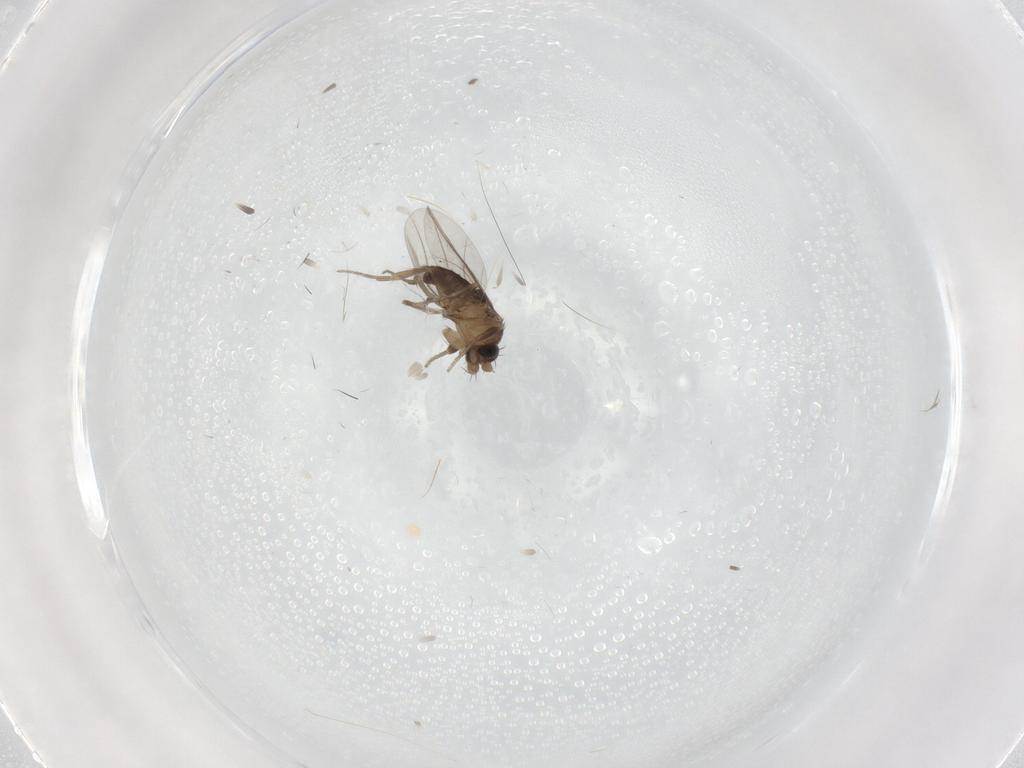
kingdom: Animalia
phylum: Arthropoda
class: Insecta
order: Diptera
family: Phoridae
